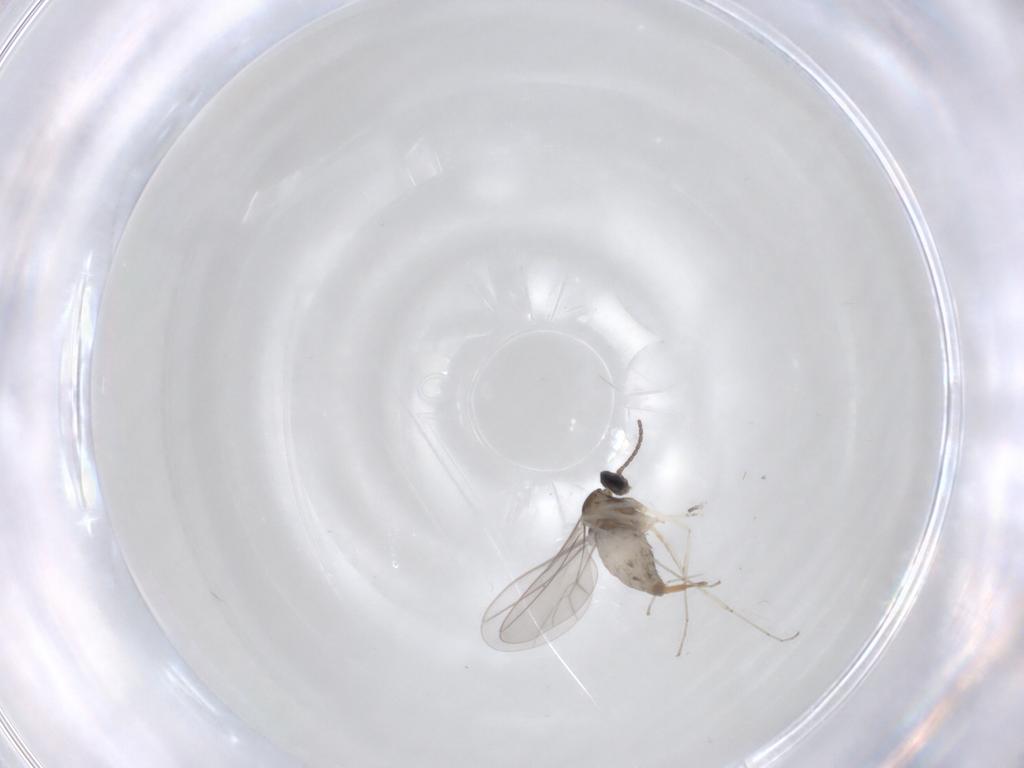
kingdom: Animalia
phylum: Arthropoda
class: Insecta
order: Diptera
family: Cecidomyiidae
